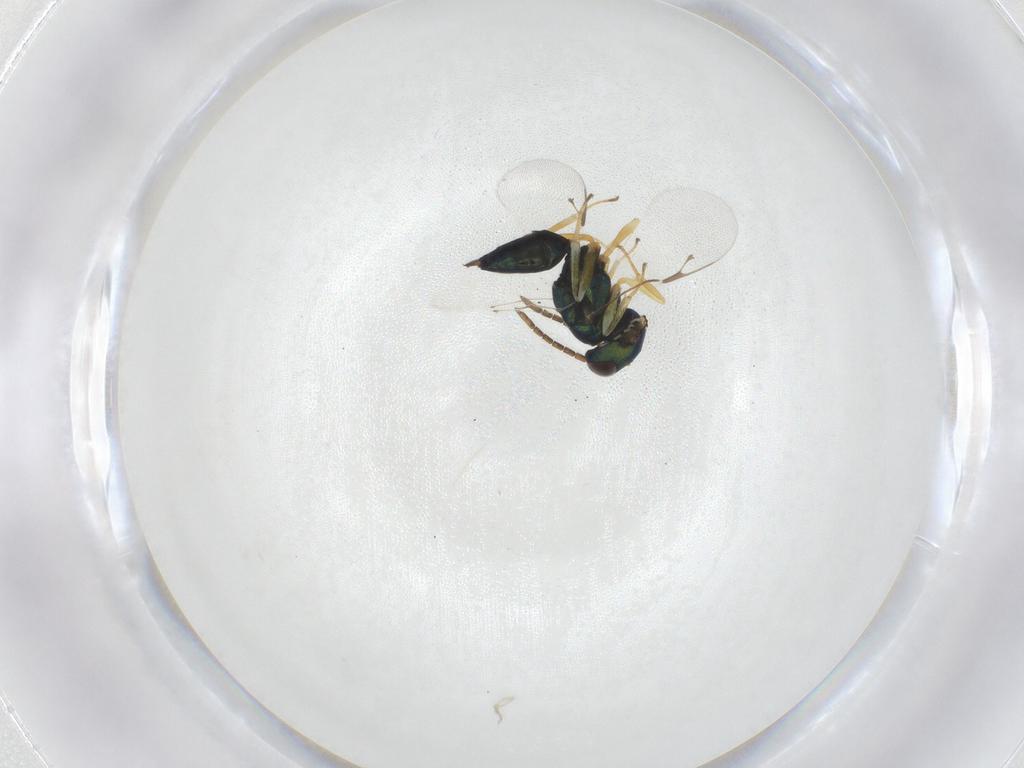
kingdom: Animalia
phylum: Arthropoda
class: Insecta
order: Hymenoptera
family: Pteromalidae
